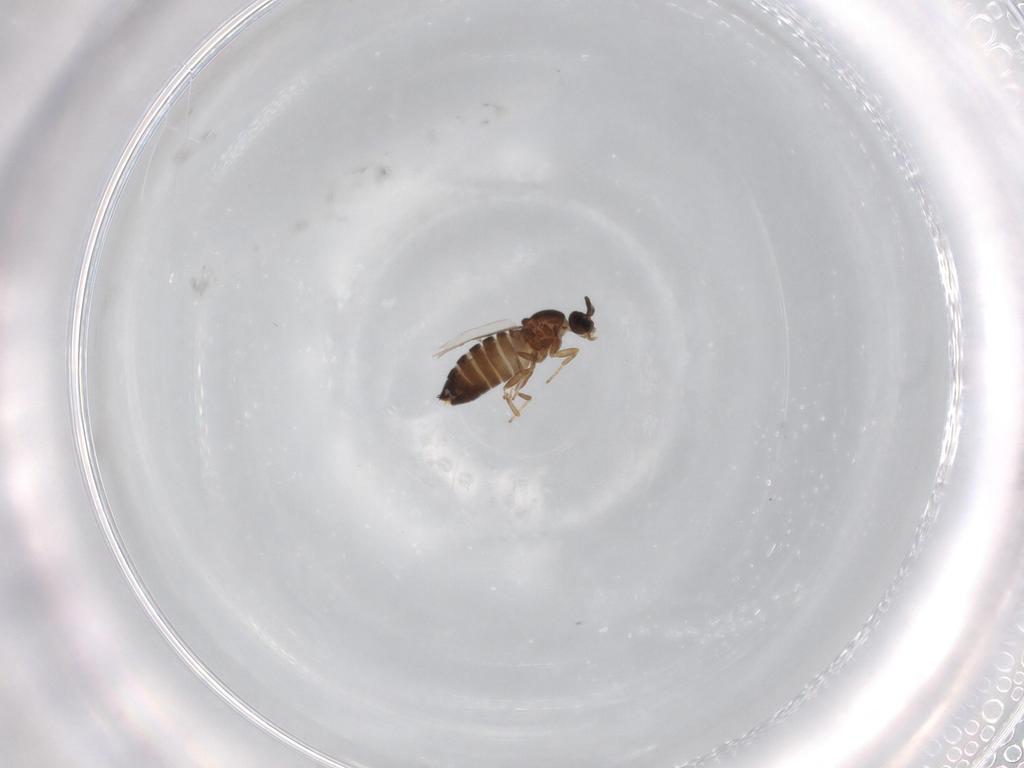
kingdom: Animalia
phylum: Arthropoda
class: Insecta
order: Diptera
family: Scatopsidae
